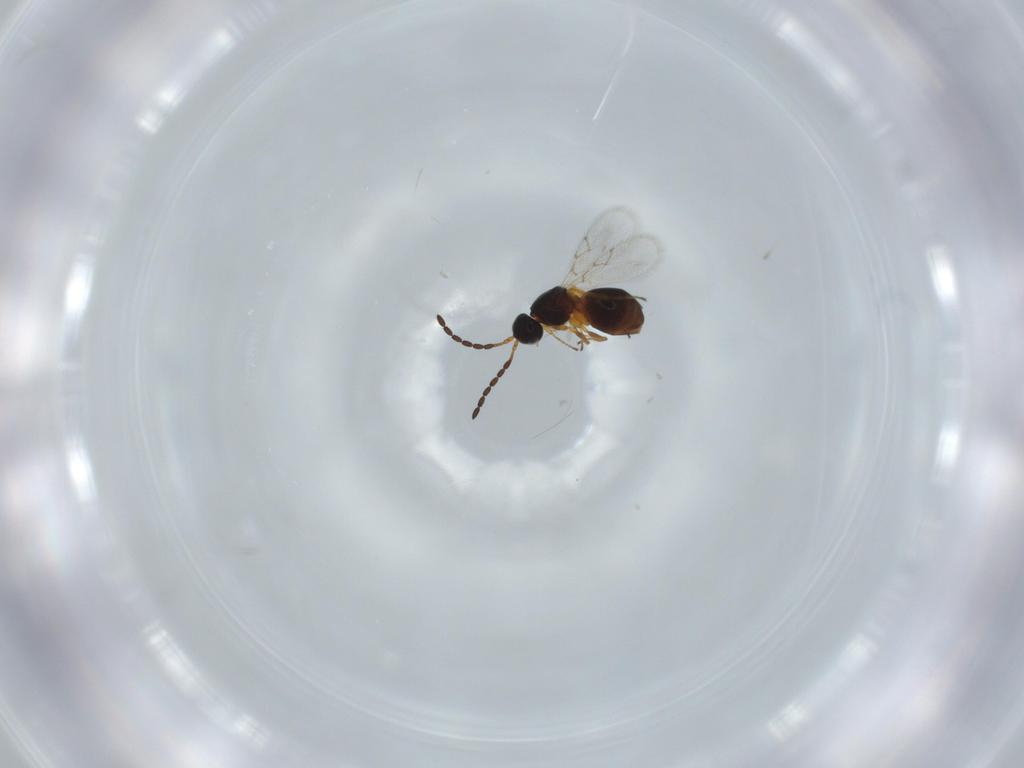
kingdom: Animalia
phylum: Arthropoda
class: Insecta
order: Hymenoptera
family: Figitidae
